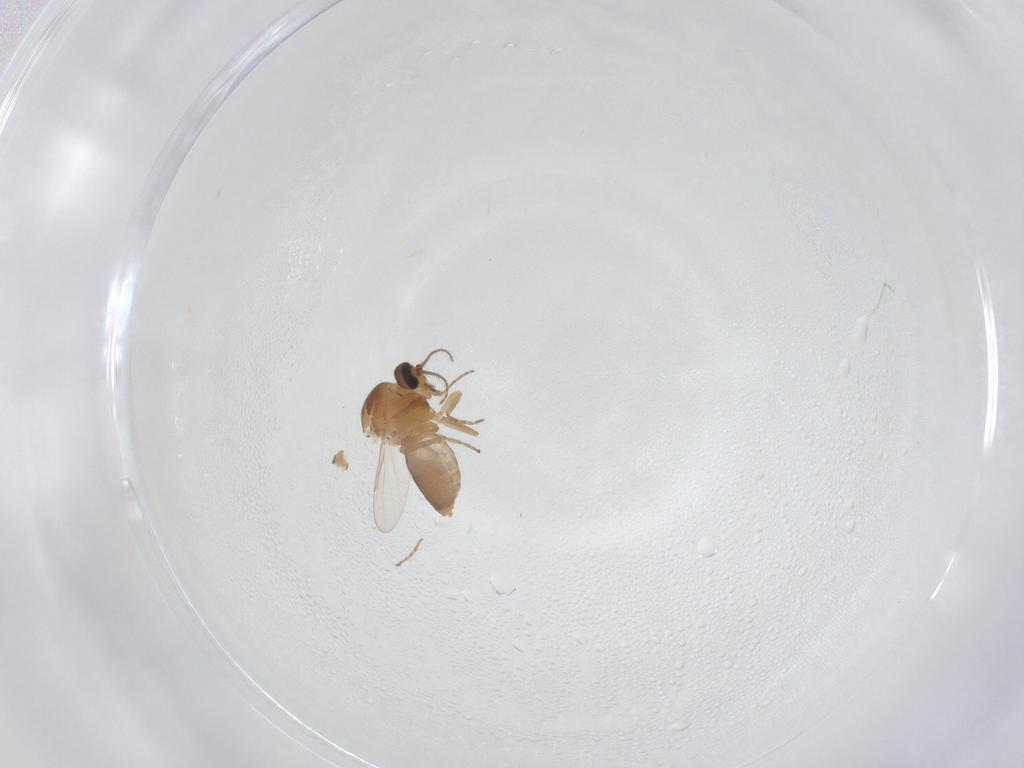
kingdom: Animalia
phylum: Arthropoda
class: Insecta
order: Diptera
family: Ceratopogonidae
